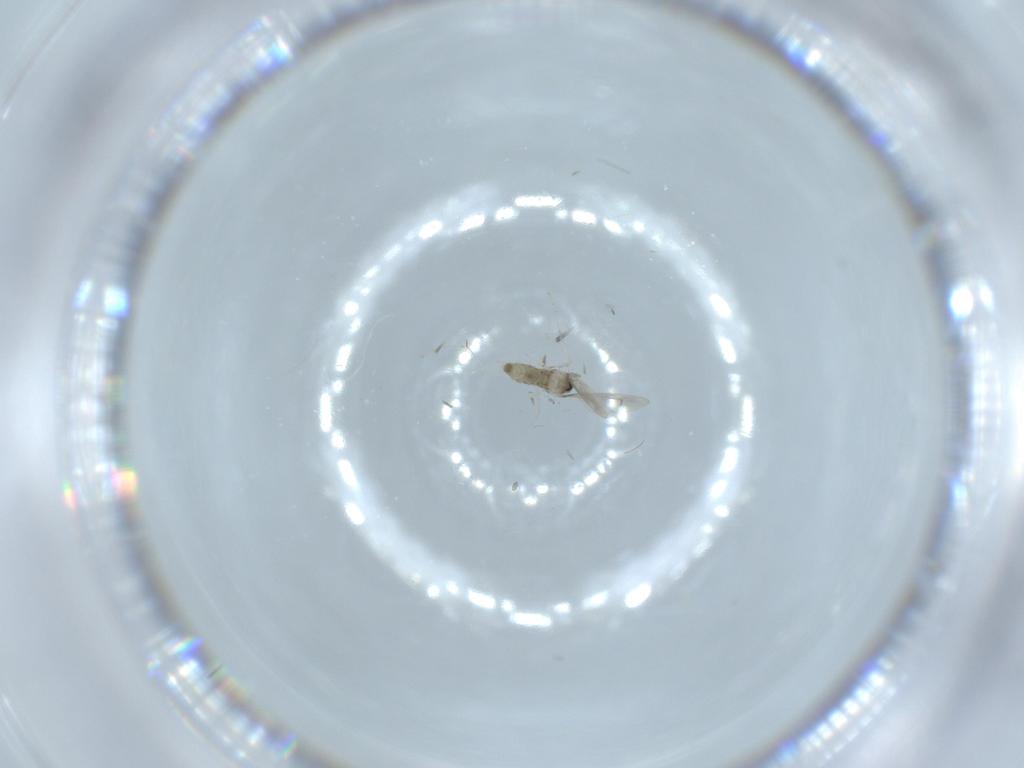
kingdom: Animalia
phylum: Arthropoda
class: Insecta
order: Diptera
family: Cecidomyiidae
